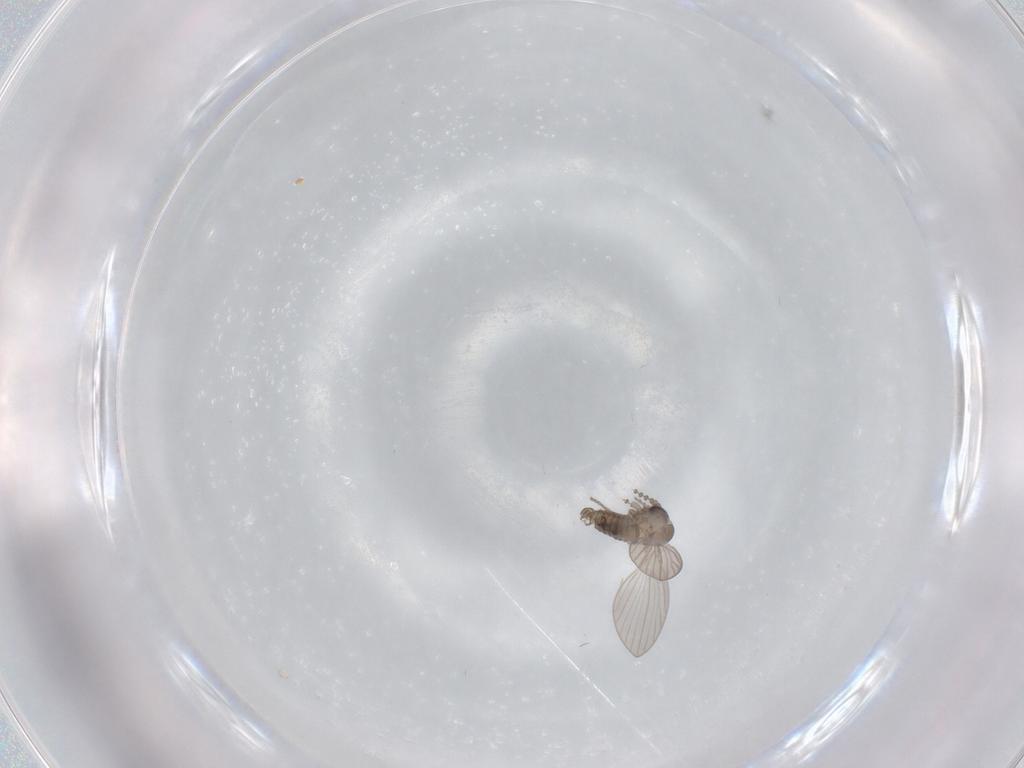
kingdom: Animalia
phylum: Arthropoda
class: Insecta
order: Diptera
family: Psychodidae
